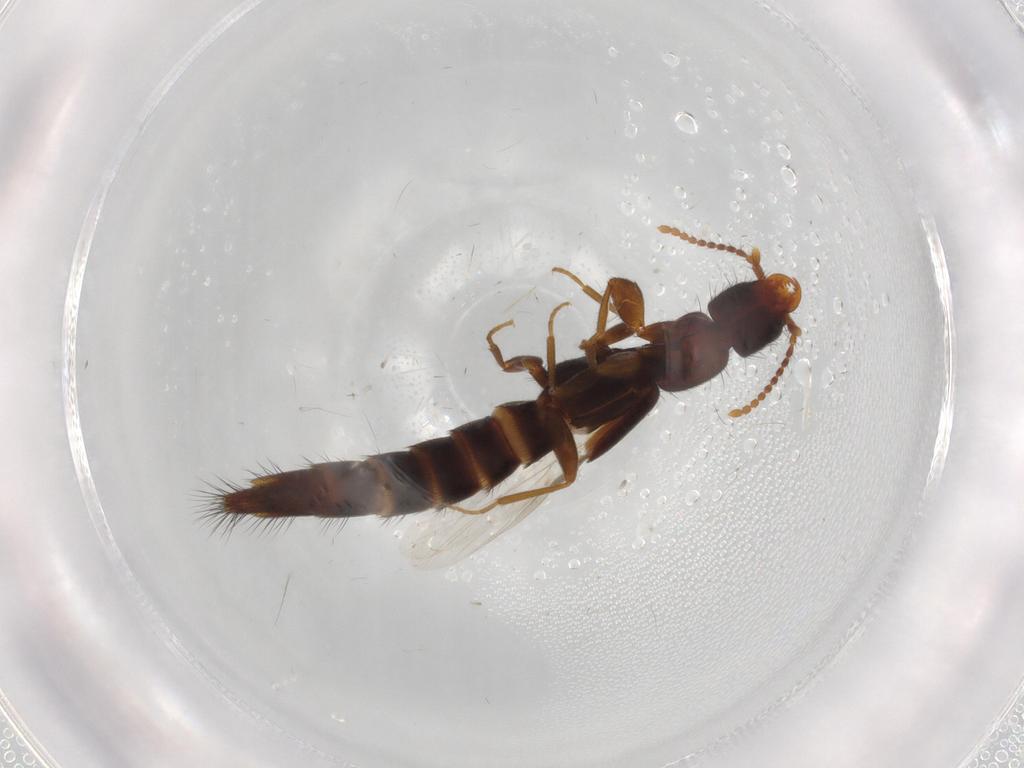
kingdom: Animalia
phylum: Arthropoda
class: Insecta
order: Coleoptera
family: Staphylinidae
